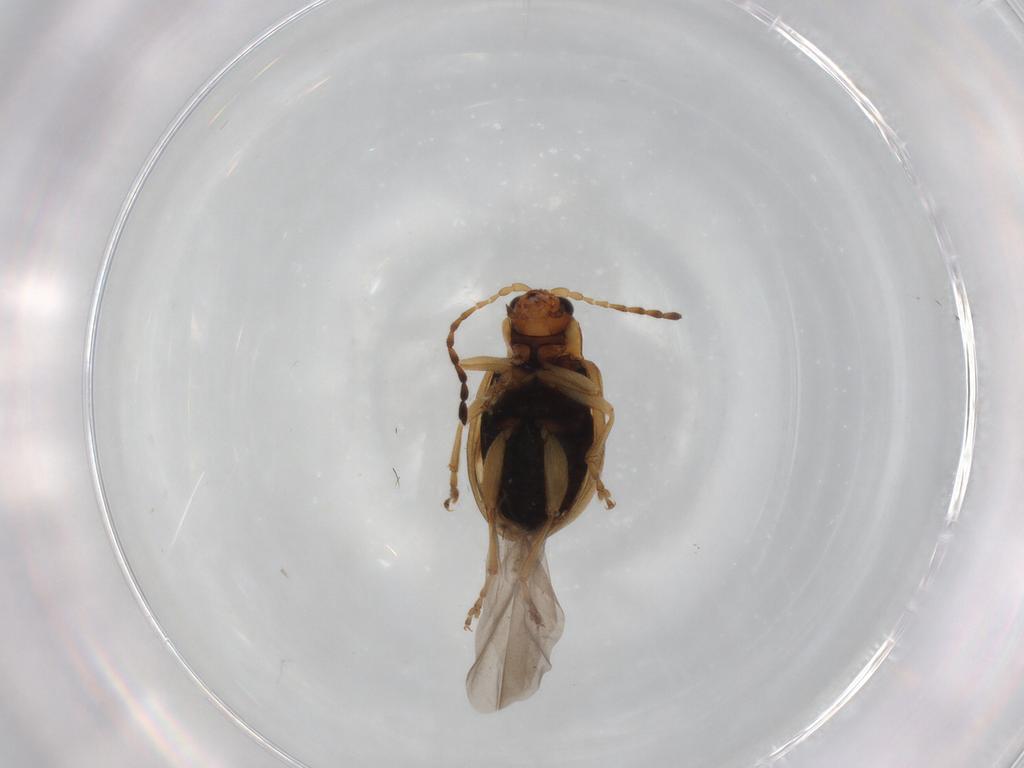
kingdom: Animalia
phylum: Arthropoda
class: Insecta
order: Coleoptera
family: Chrysomelidae
